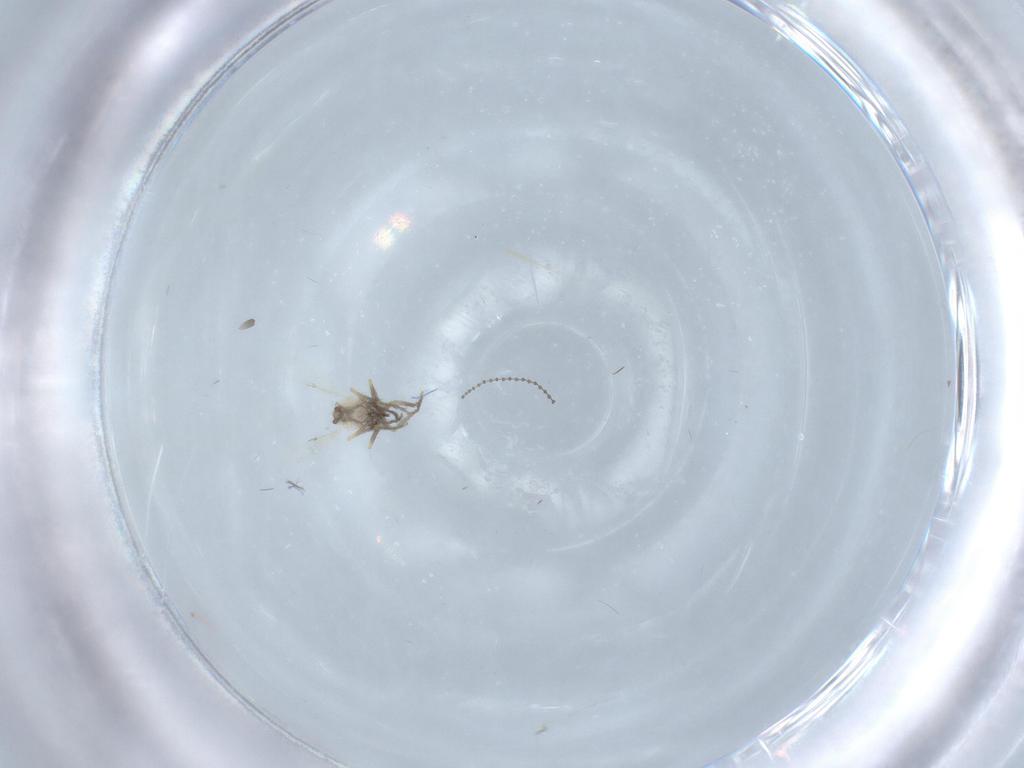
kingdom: Animalia
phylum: Arthropoda
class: Insecta
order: Diptera
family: Ceratopogonidae
